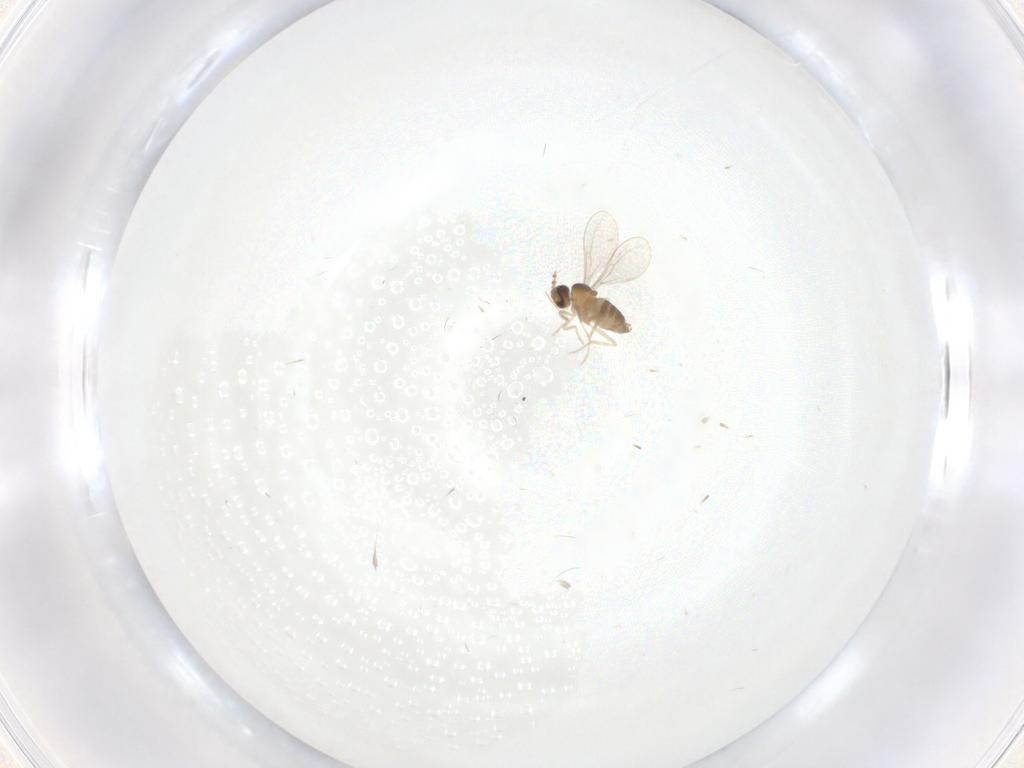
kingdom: Animalia
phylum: Arthropoda
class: Insecta
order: Diptera
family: Cecidomyiidae
